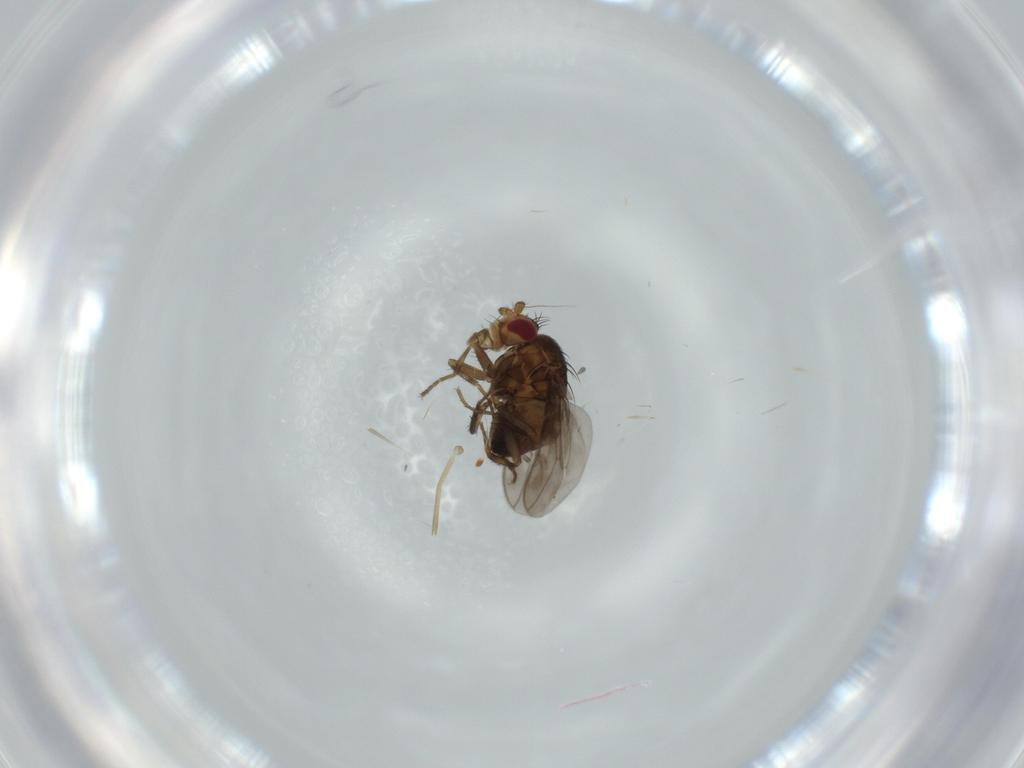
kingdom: Animalia
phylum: Arthropoda
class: Insecta
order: Diptera
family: Cecidomyiidae
